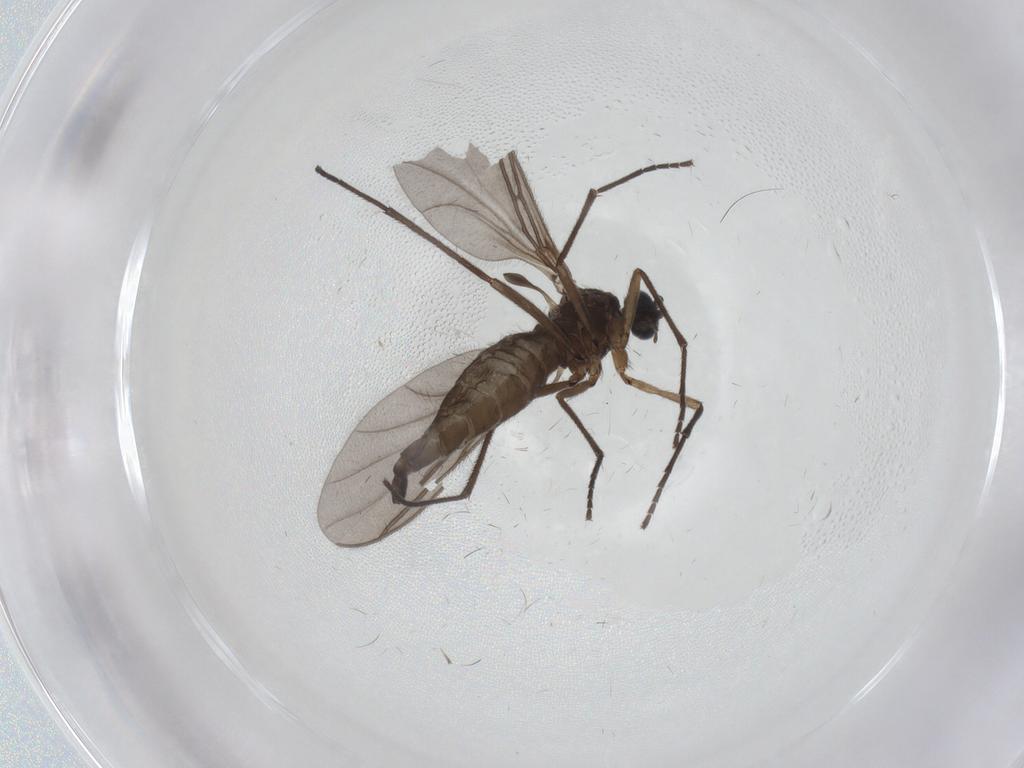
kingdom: Animalia
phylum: Arthropoda
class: Insecta
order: Diptera
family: Sciaridae
